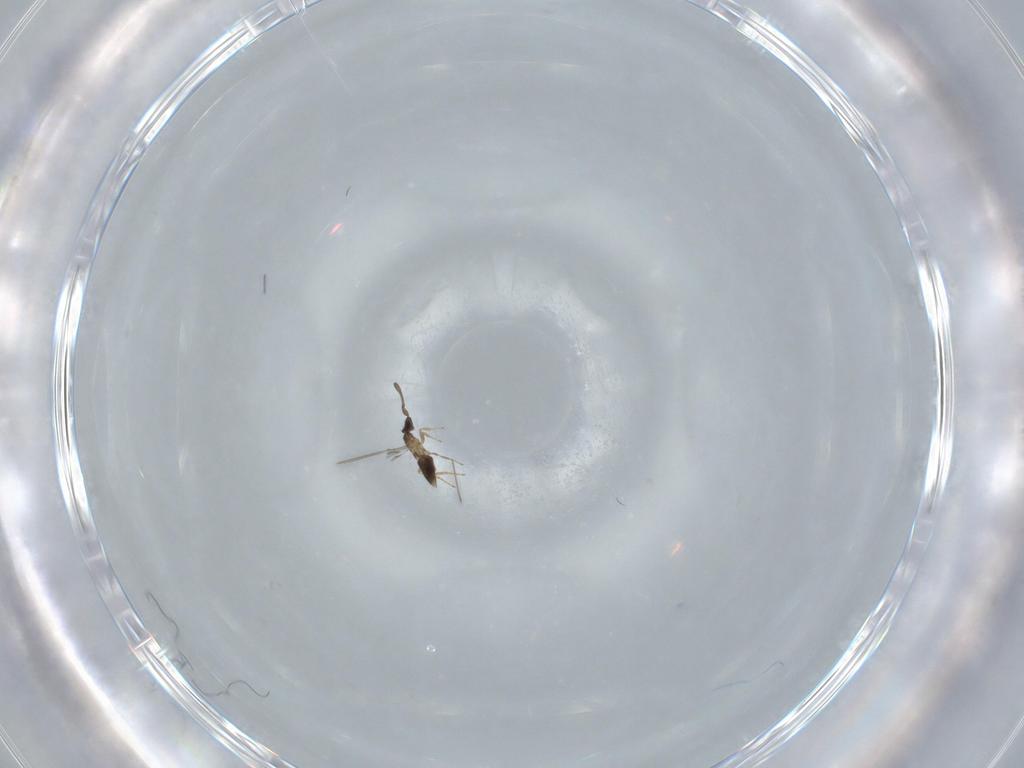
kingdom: Animalia
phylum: Arthropoda
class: Insecta
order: Hymenoptera
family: Mymaridae
